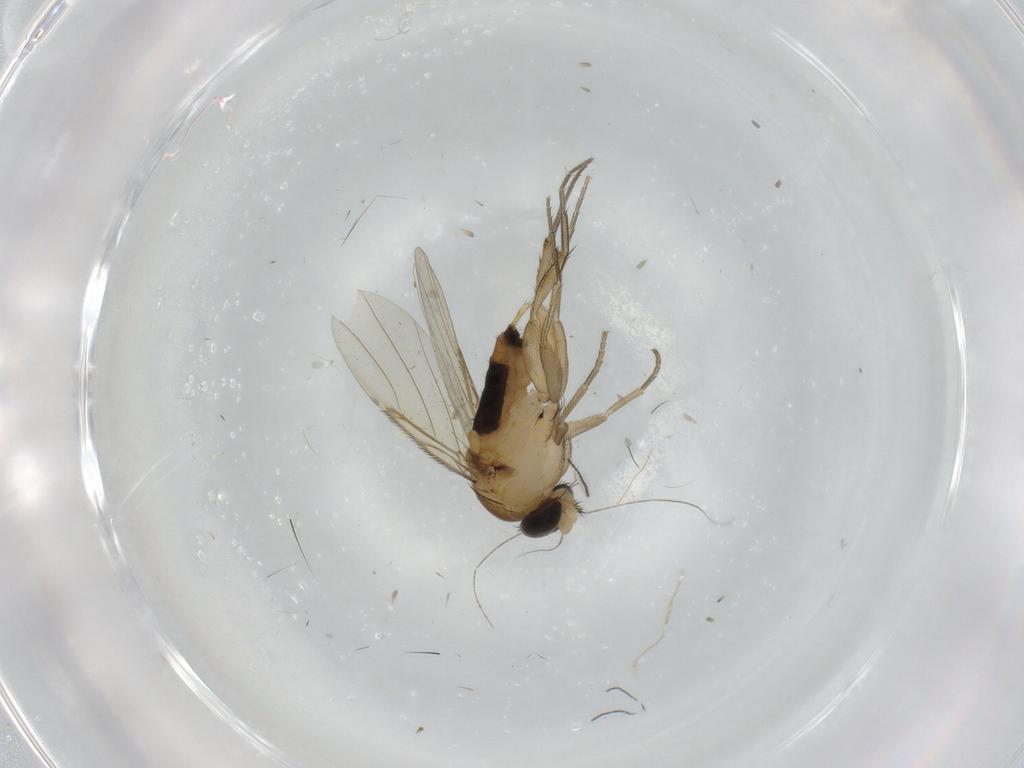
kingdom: Animalia
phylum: Arthropoda
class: Insecta
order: Diptera
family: Phoridae
